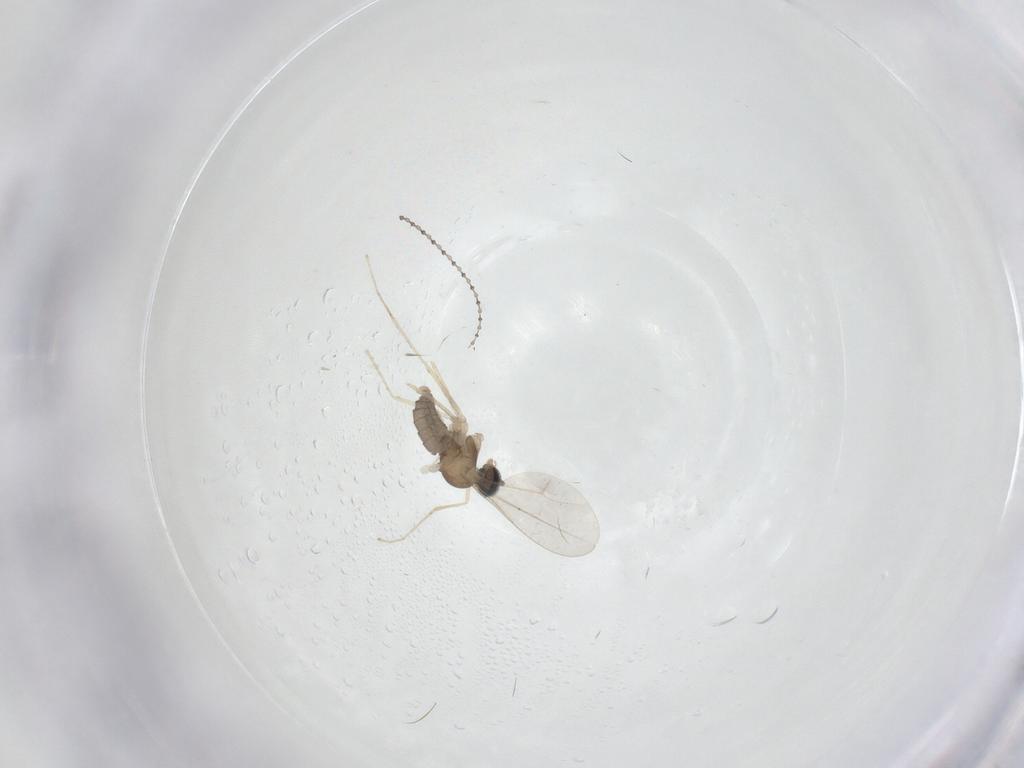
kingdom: Animalia
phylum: Arthropoda
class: Insecta
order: Diptera
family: Cecidomyiidae
